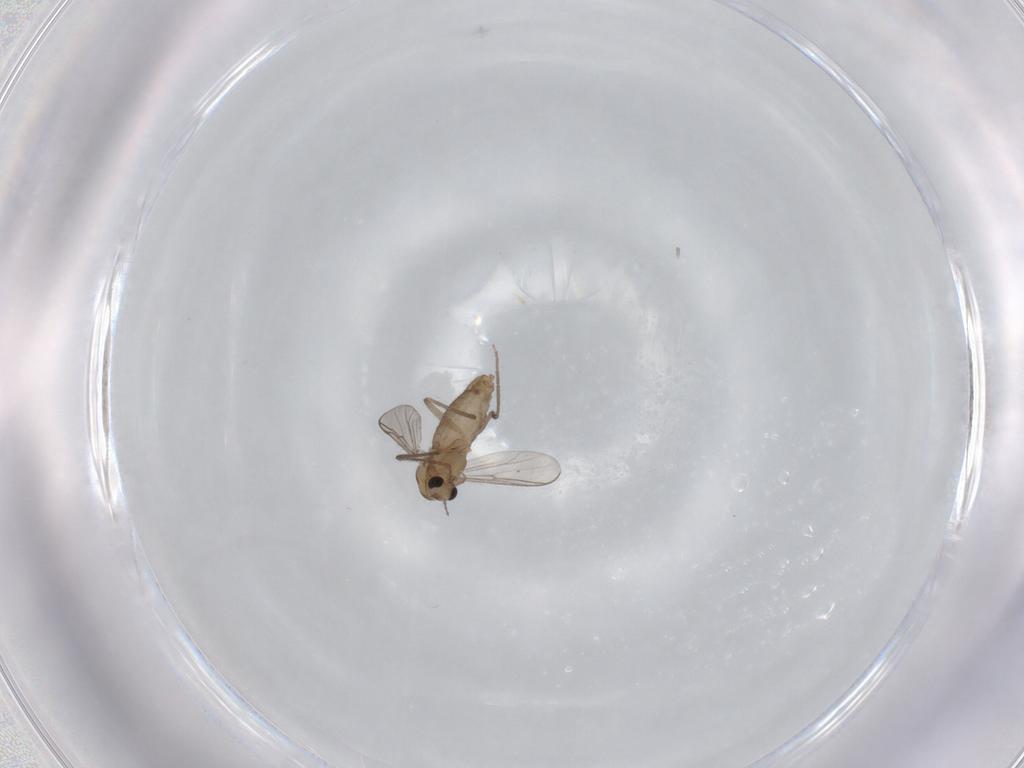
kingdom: Animalia
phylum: Arthropoda
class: Insecta
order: Diptera
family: Chironomidae
